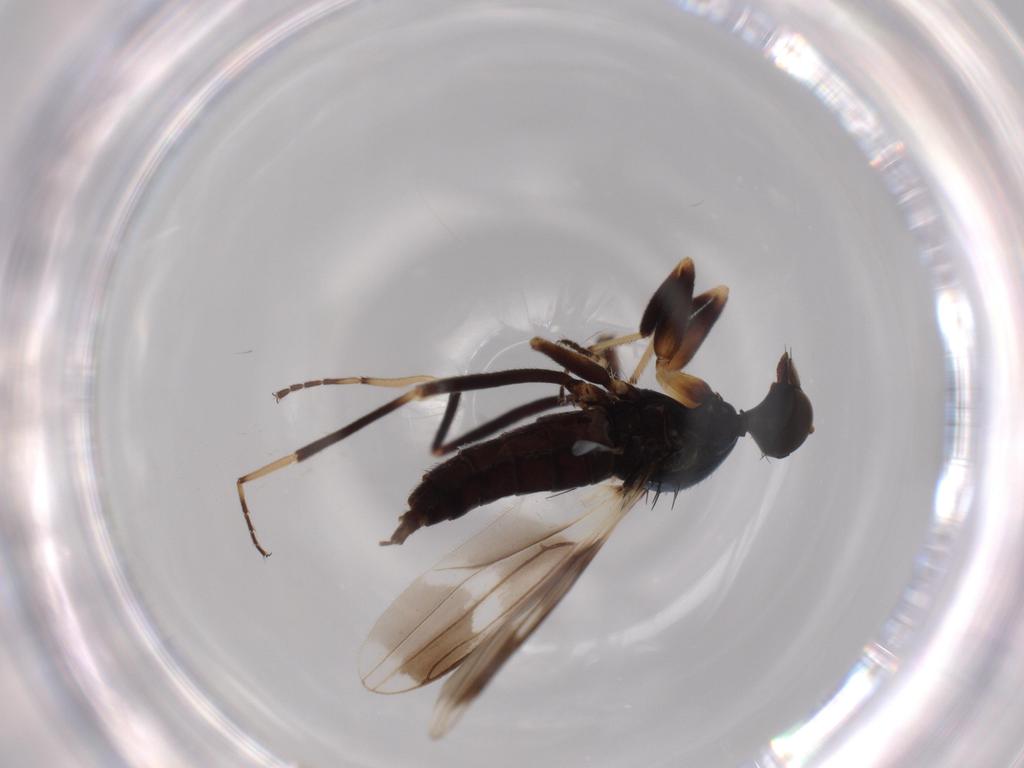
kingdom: Animalia
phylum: Arthropoda
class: Insecta
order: Diptera
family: Hybotidae
